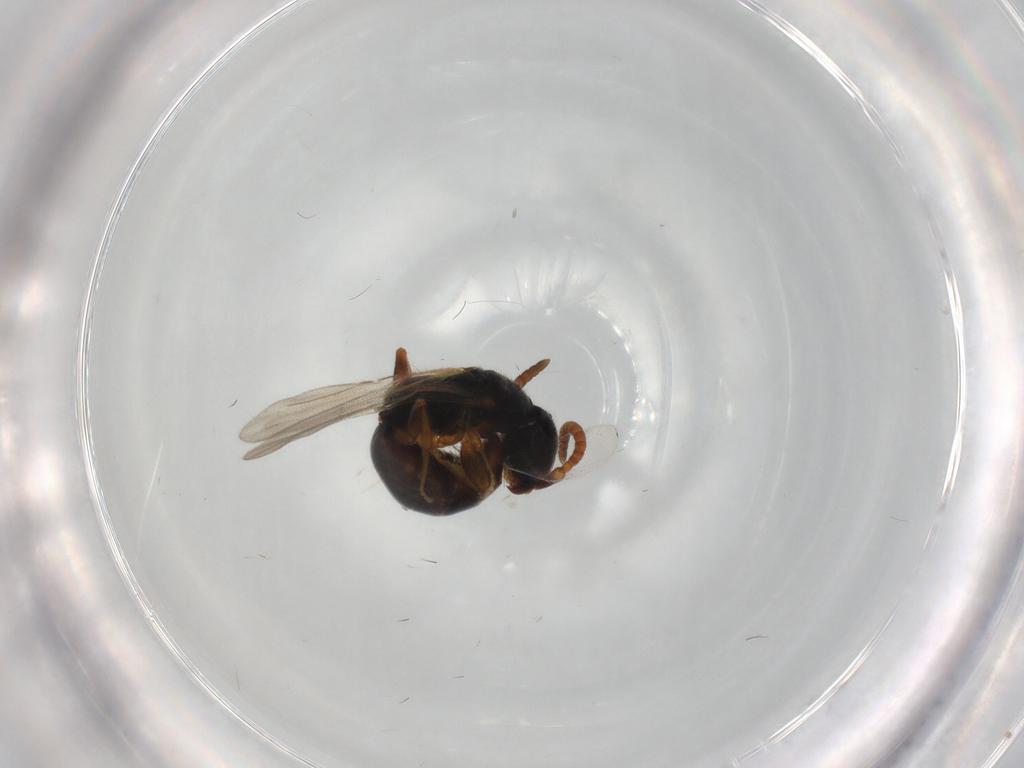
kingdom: Animalia
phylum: Arthropoda
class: Insecta
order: Hymenoptera
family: Bethylidae
